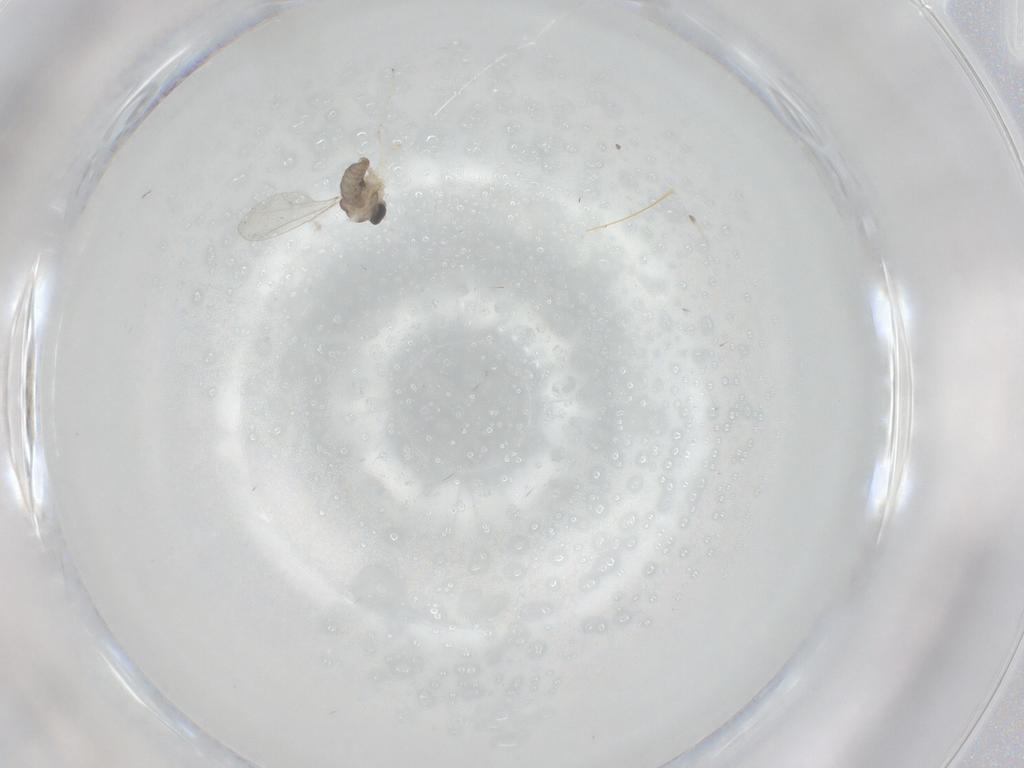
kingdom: Animalia
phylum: Arthropoda
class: Insecta
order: Diptera
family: Cecidomyiidae
